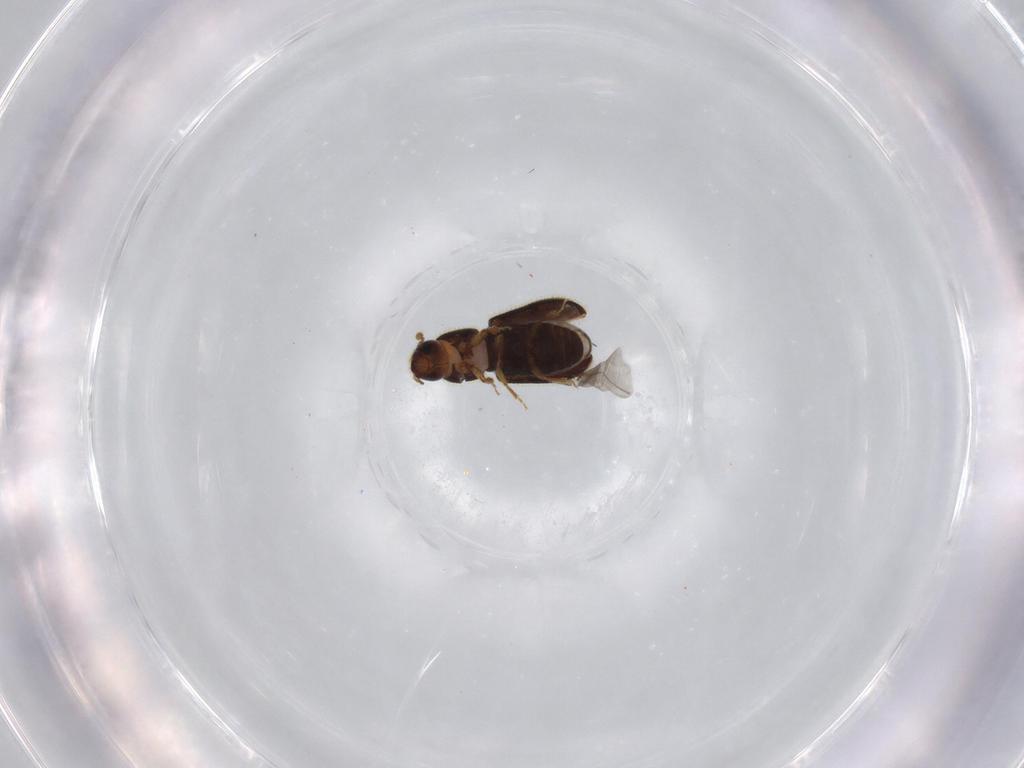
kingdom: Animalia
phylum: Arthropoda
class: Insecta
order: Coleoptera
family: Curculionidae
